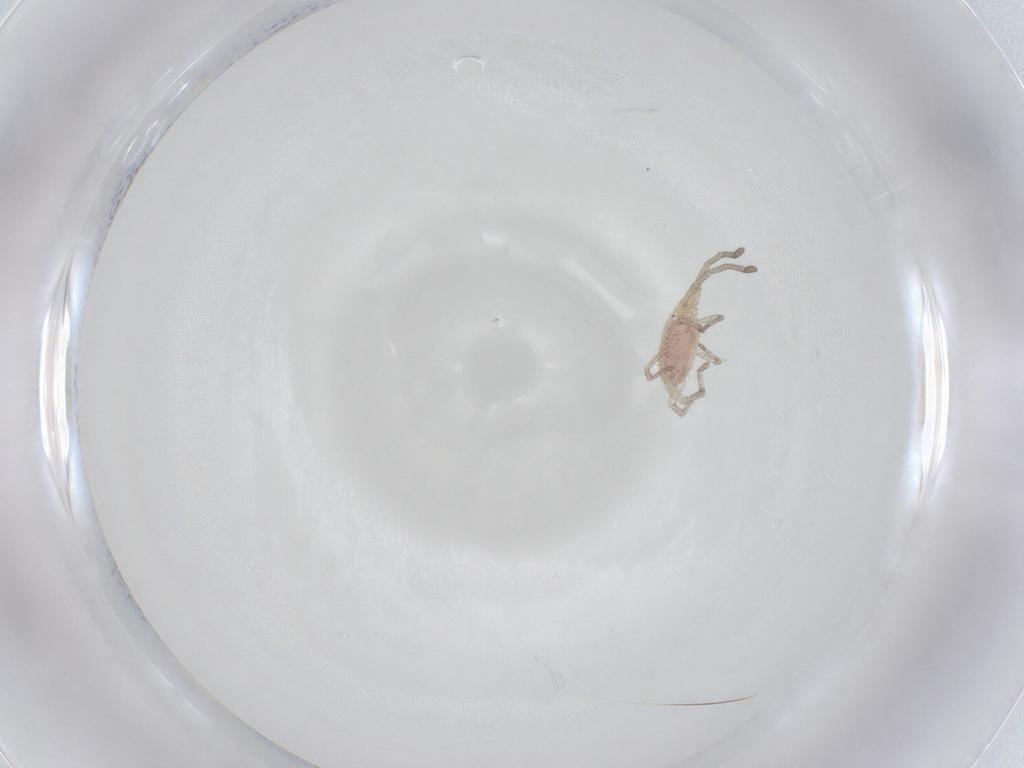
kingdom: Animalia
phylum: Arthropoda
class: Arachnida
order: Trombidiformes
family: Smarididae
